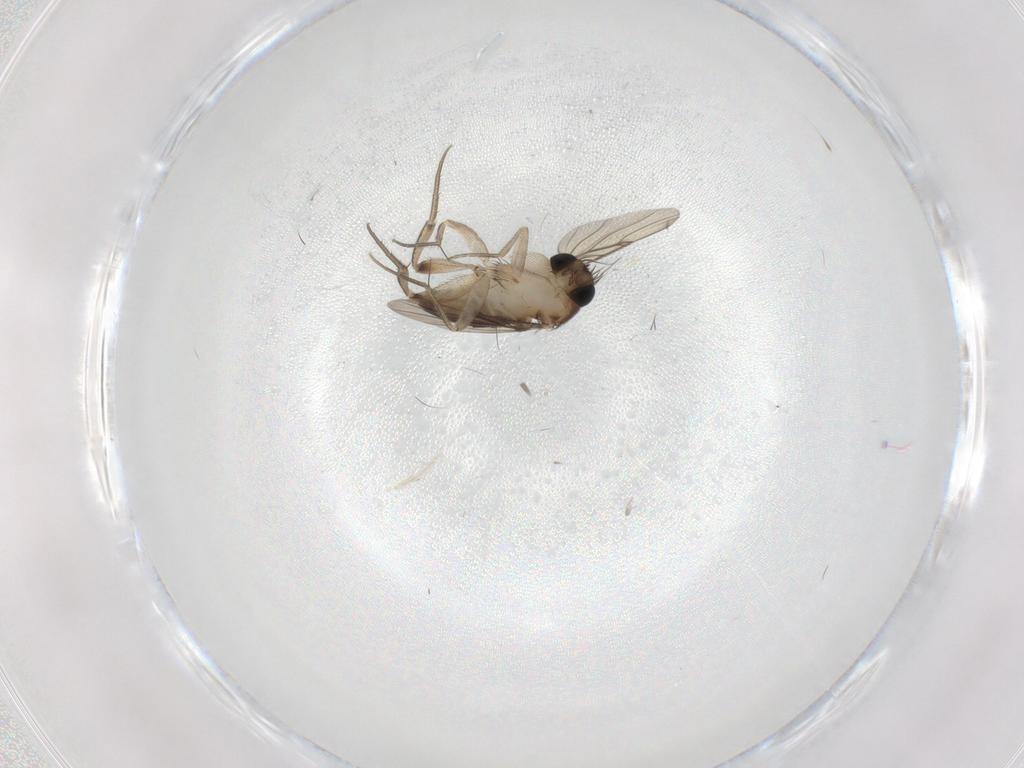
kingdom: Animalia
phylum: Arthropoda
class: Insecta
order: Diptera
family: Phoridae
